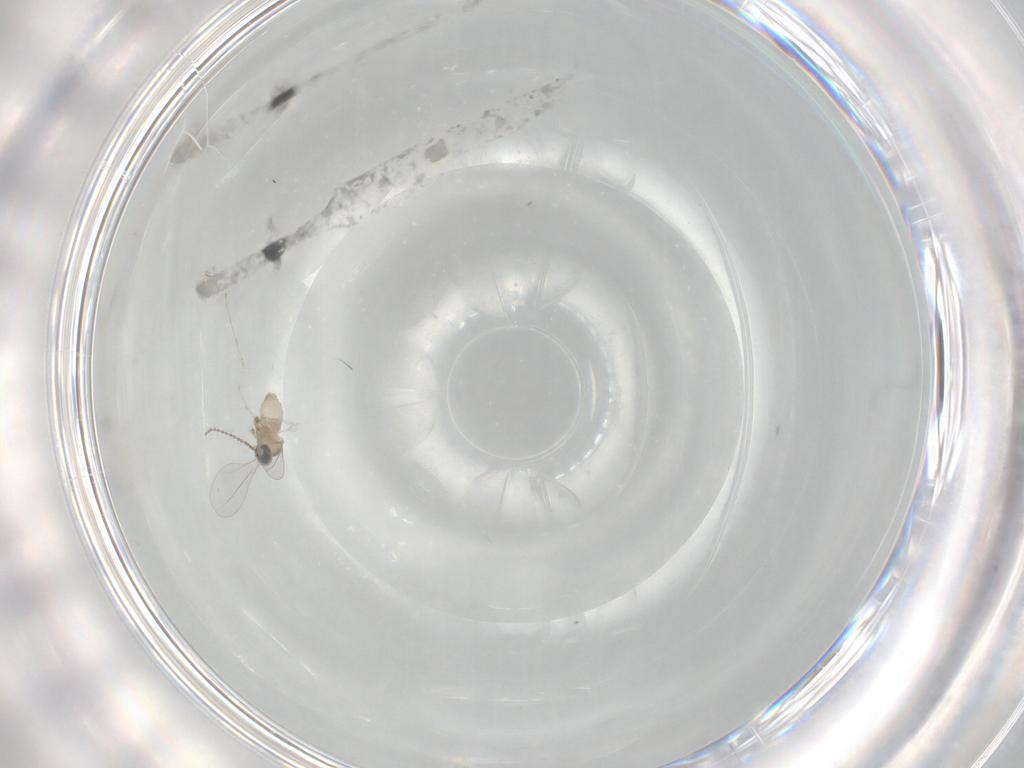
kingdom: Animalia
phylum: Arthropoda
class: Insecta
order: Diptera
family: Cecidomyiidae
